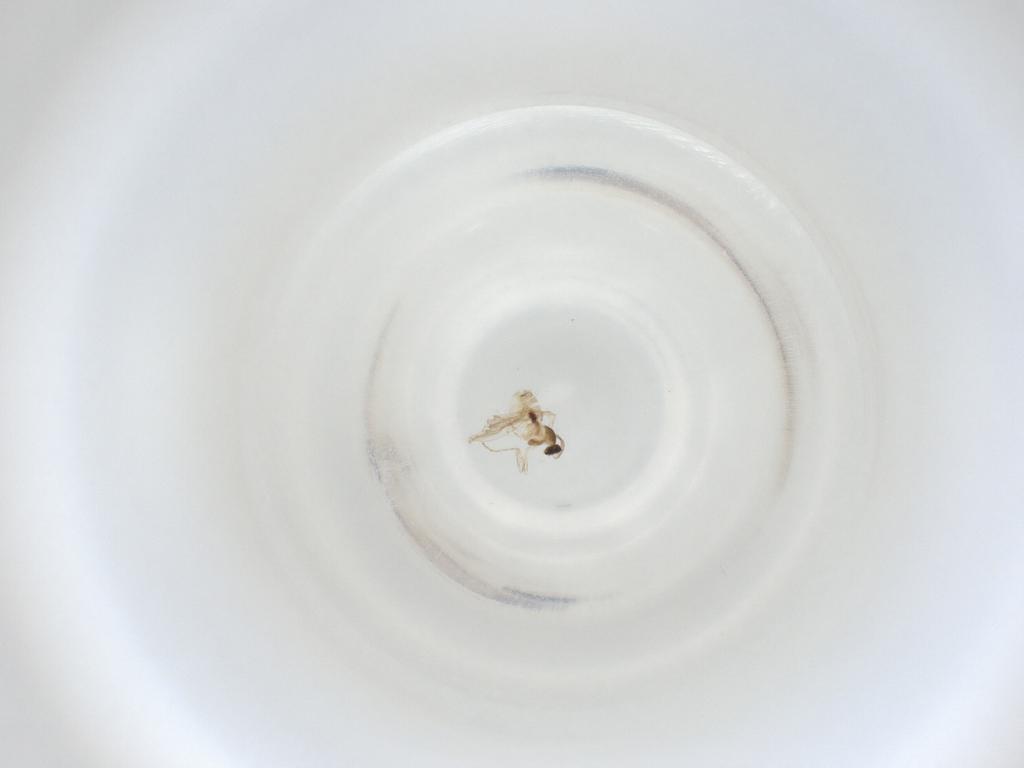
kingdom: Animalia
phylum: Arthropoda
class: Insecta
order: Diptera
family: Cecidomyiidae
